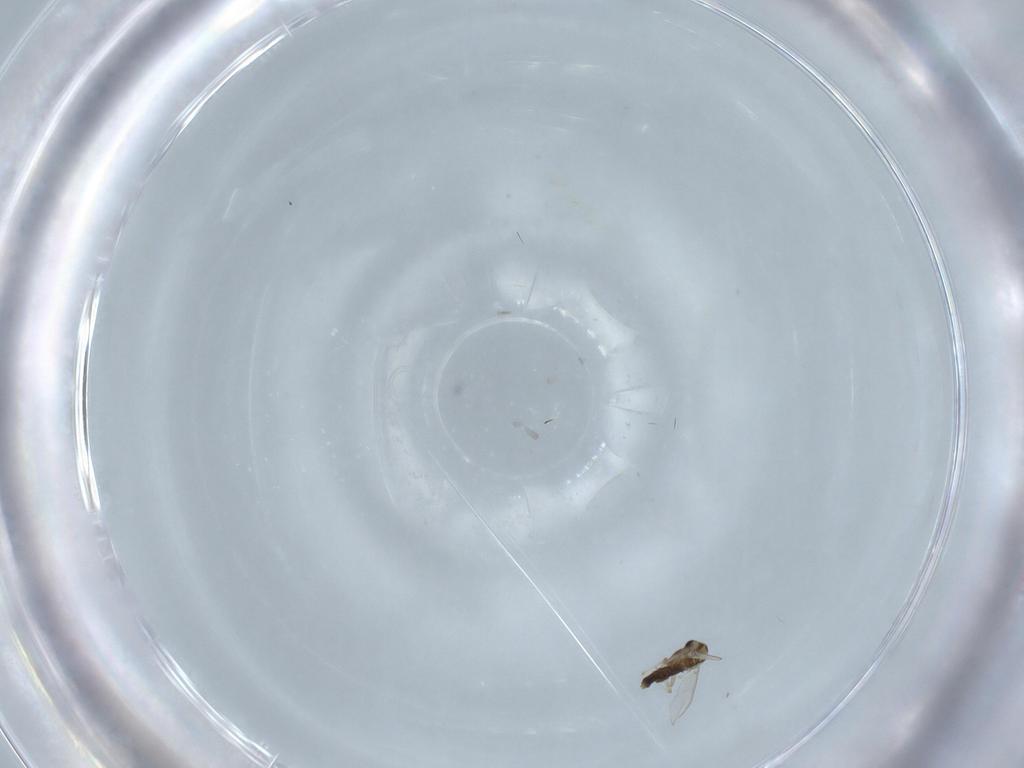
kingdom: Animalia
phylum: Arthropoda
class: Insecta
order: Diptera
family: Chironomidae
